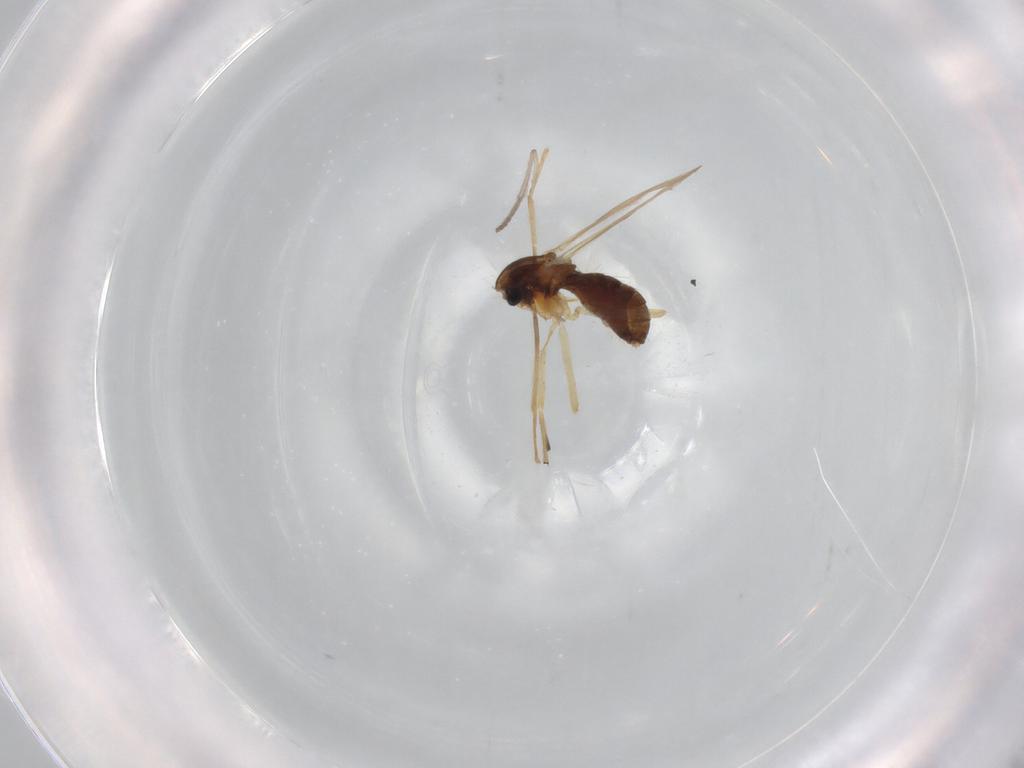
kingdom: Animalia
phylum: Arthropoda
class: Insecta
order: Diptera
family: Chironomidae
